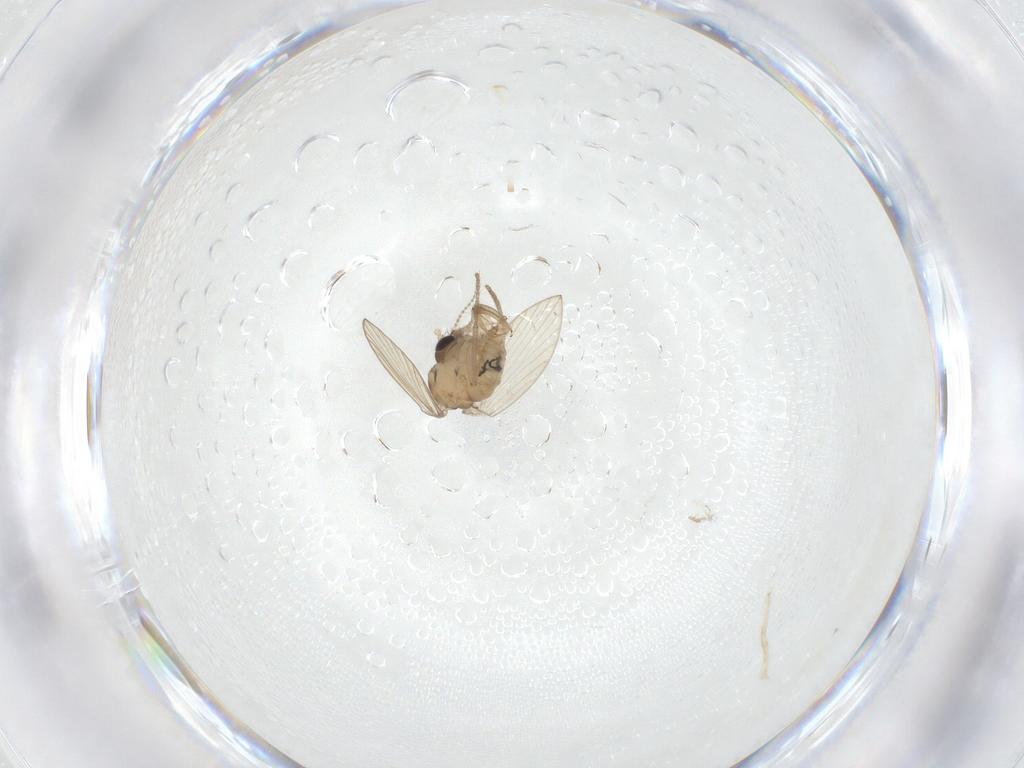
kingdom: Animalia
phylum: Arthropoda
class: Insecta
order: Diptera
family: Psychodidae
